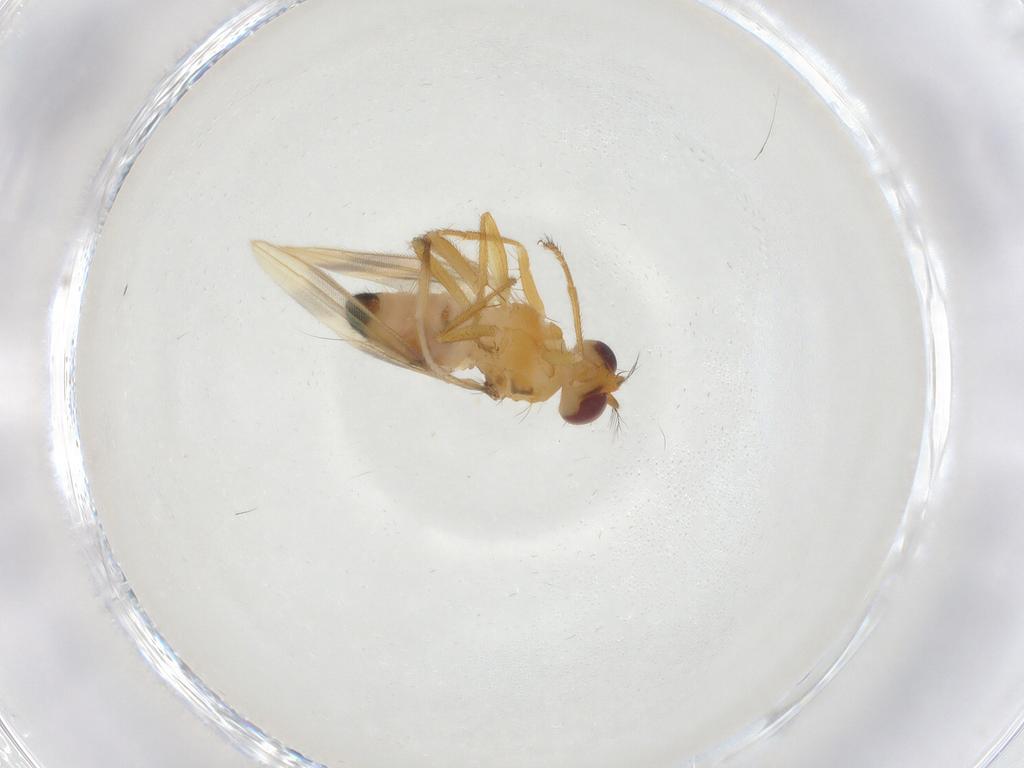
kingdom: Animalia
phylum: Arthropoda
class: Insecta
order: Diptera
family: Periscelididae
